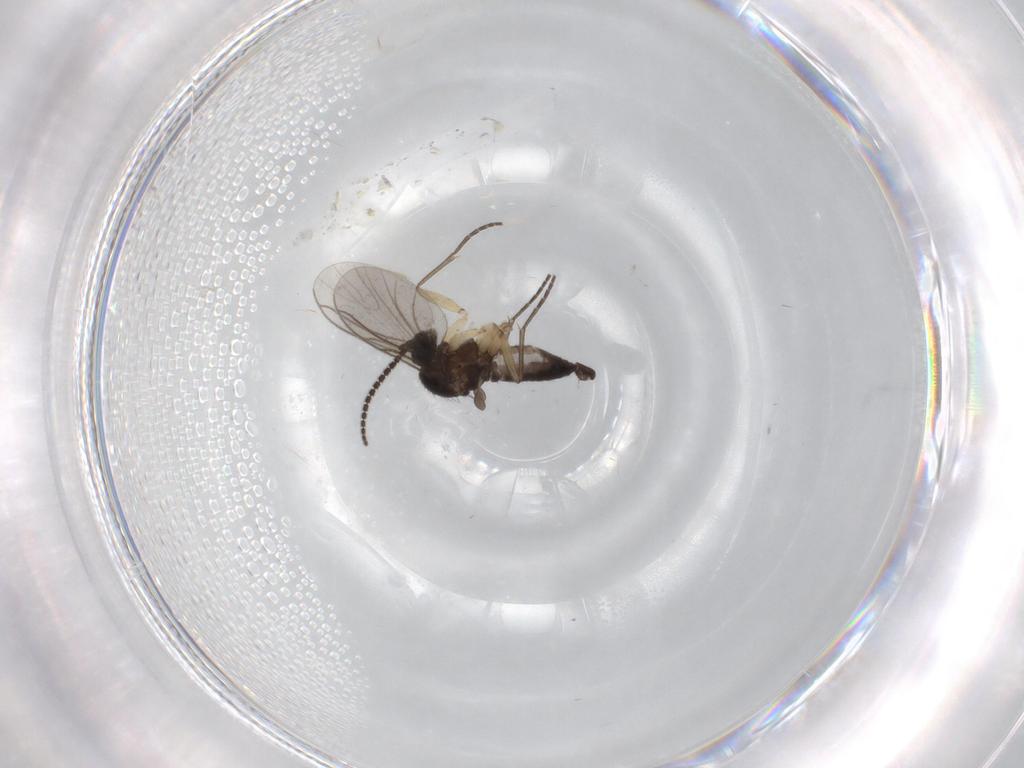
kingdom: Animalia
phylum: Arthropoda
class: Insecta
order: Diptera
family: Sciaridae
